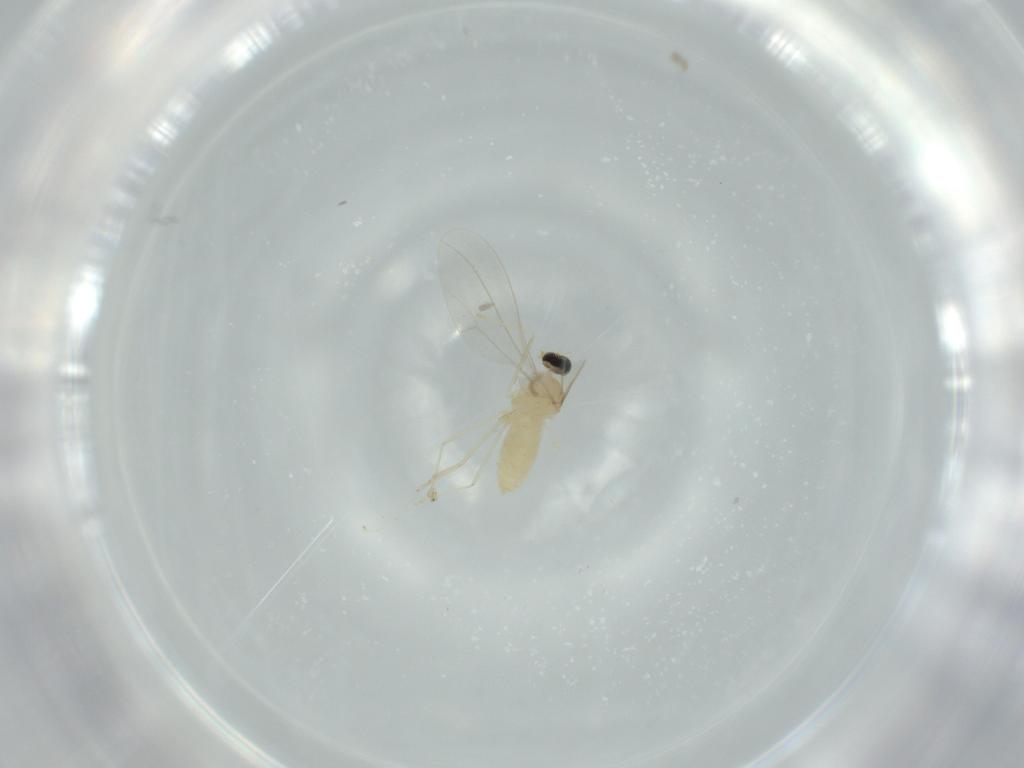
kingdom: Animalia
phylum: Arthropoda
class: Insecta
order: Diptera
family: Cecidomyiidae
